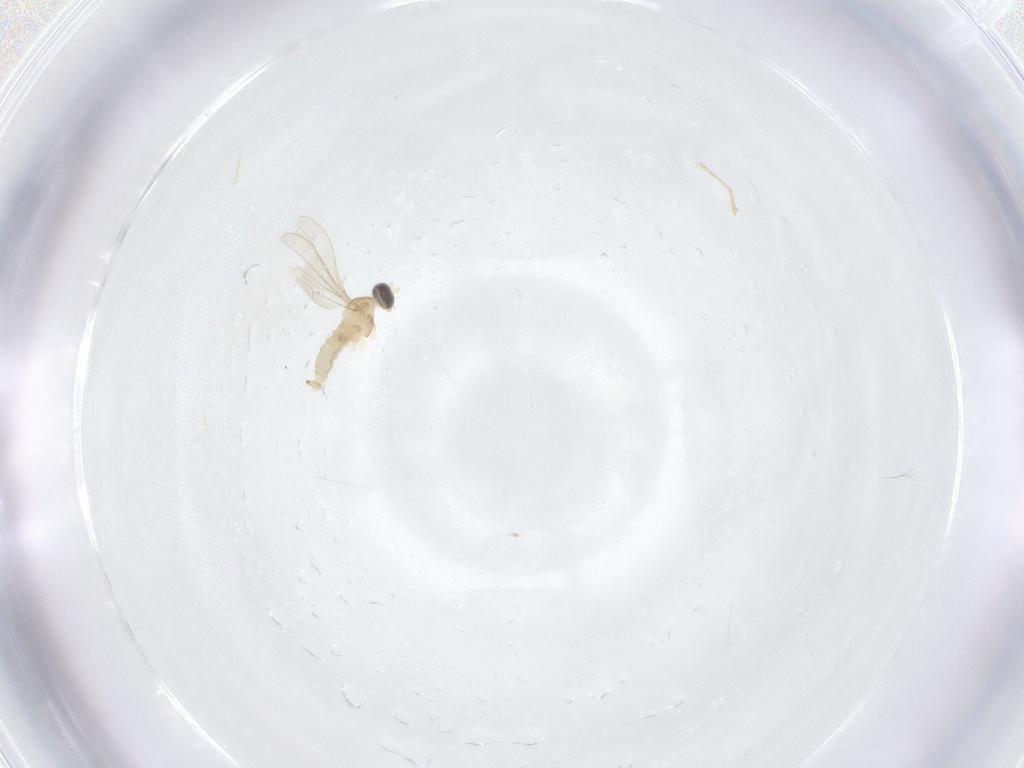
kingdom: Animalia
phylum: Arthropoda
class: Insecta
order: Diptera
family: Cecidomyiidae
